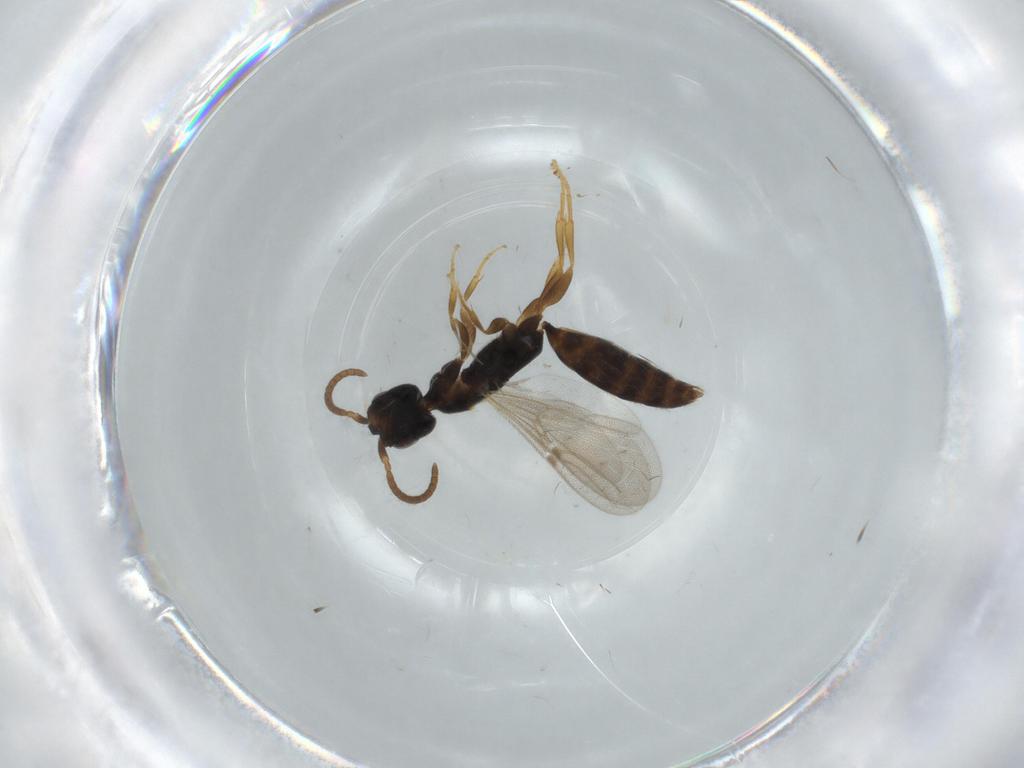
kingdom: Animalia
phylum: Arthropoda
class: Insecta
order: Hymenoptera
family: Bethylidae
